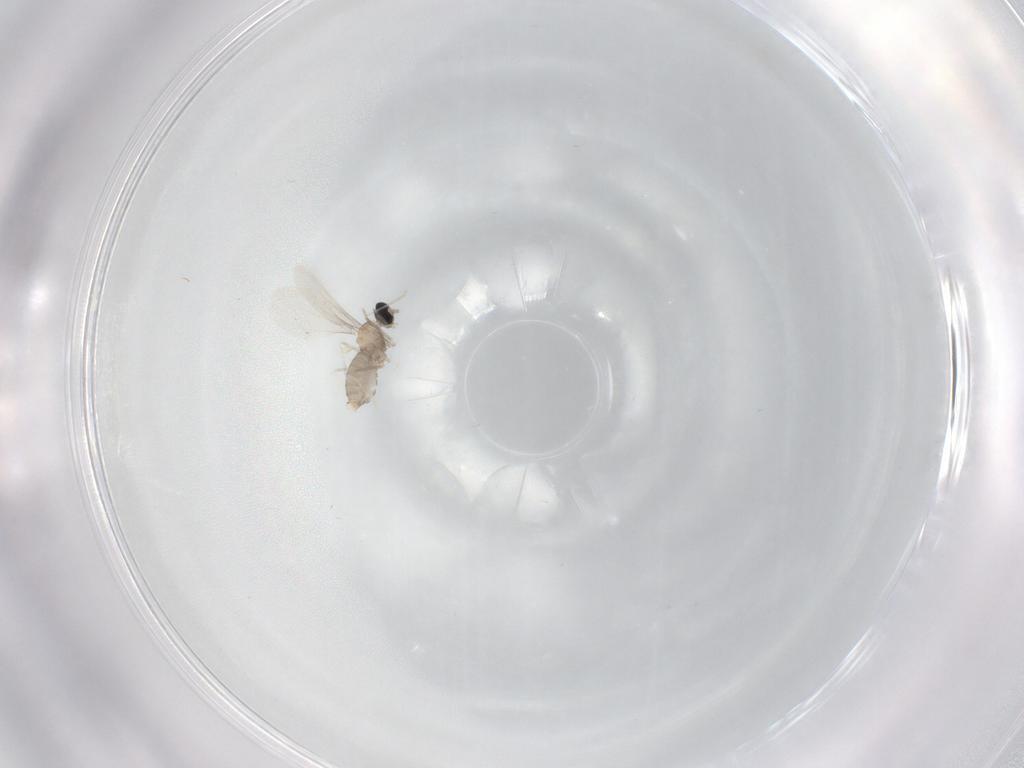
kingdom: Animalia
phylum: Arthropoda
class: Insecta
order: Diptera
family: Cecidomyiidae
